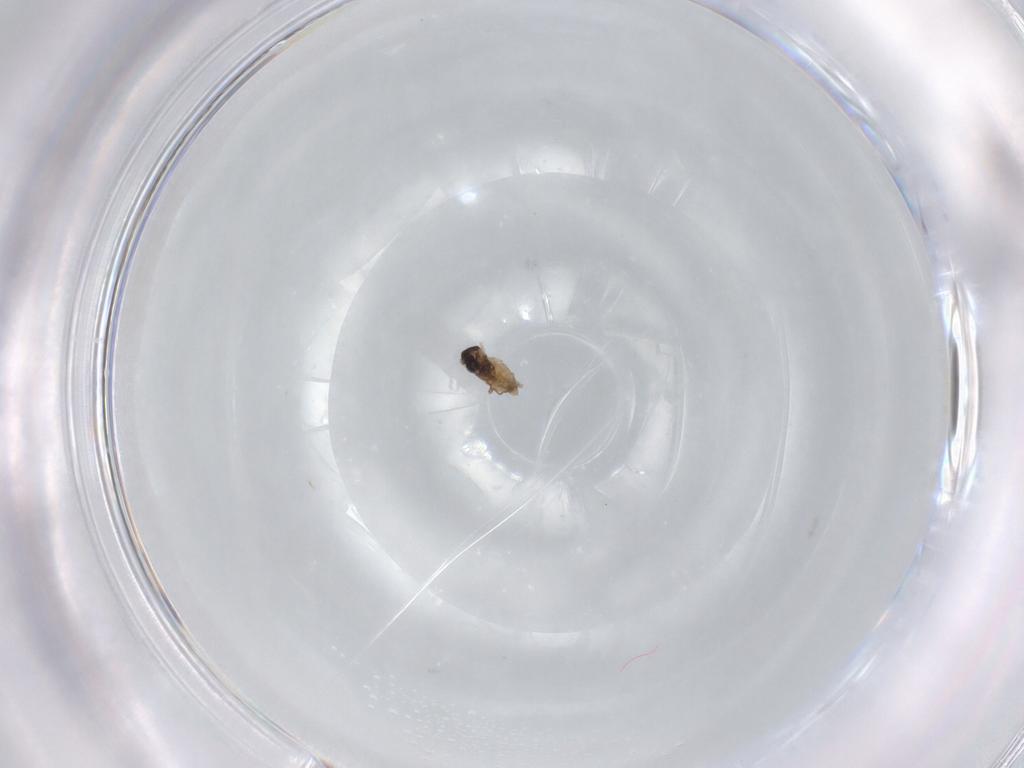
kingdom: Animalia
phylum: Arthropoda
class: Insecta
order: Diptera
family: Cecidomyiidae
